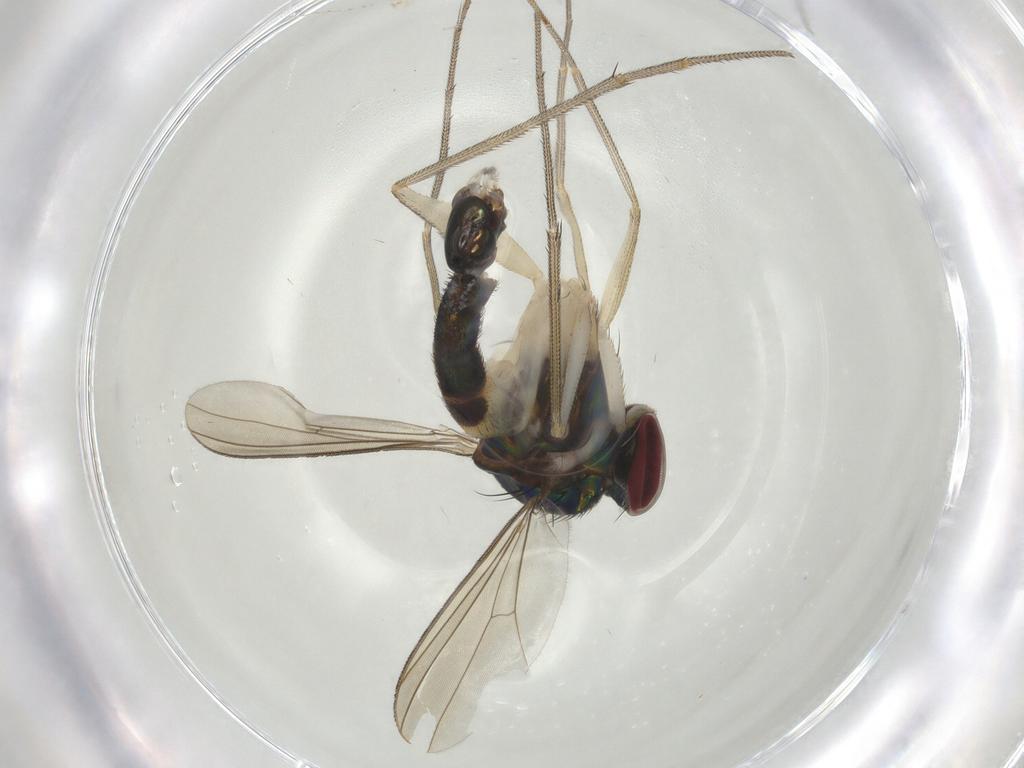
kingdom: Animalia
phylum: Arthropoda
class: Insecta
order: Diptera
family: Dolichopodidae
